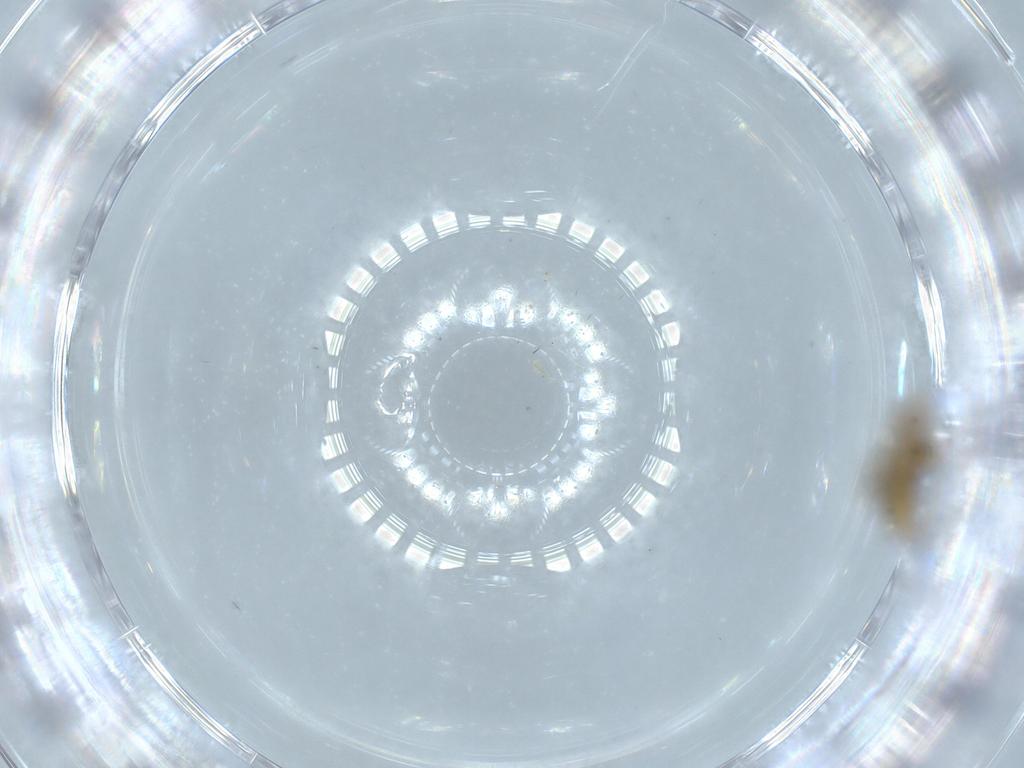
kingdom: Animalia
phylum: Arthropoda
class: Insecta
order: Diptera
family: Chironomidae
